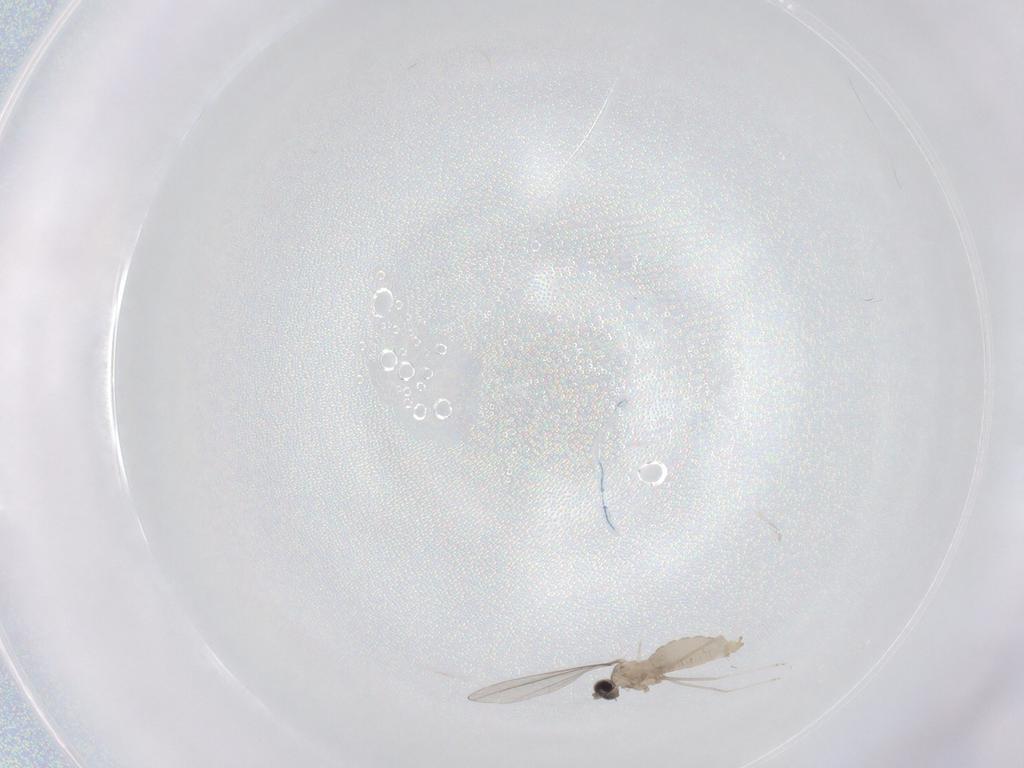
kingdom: Animalia
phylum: Arthropoda
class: Insecta
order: Diptera
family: Cecidomyiidae
